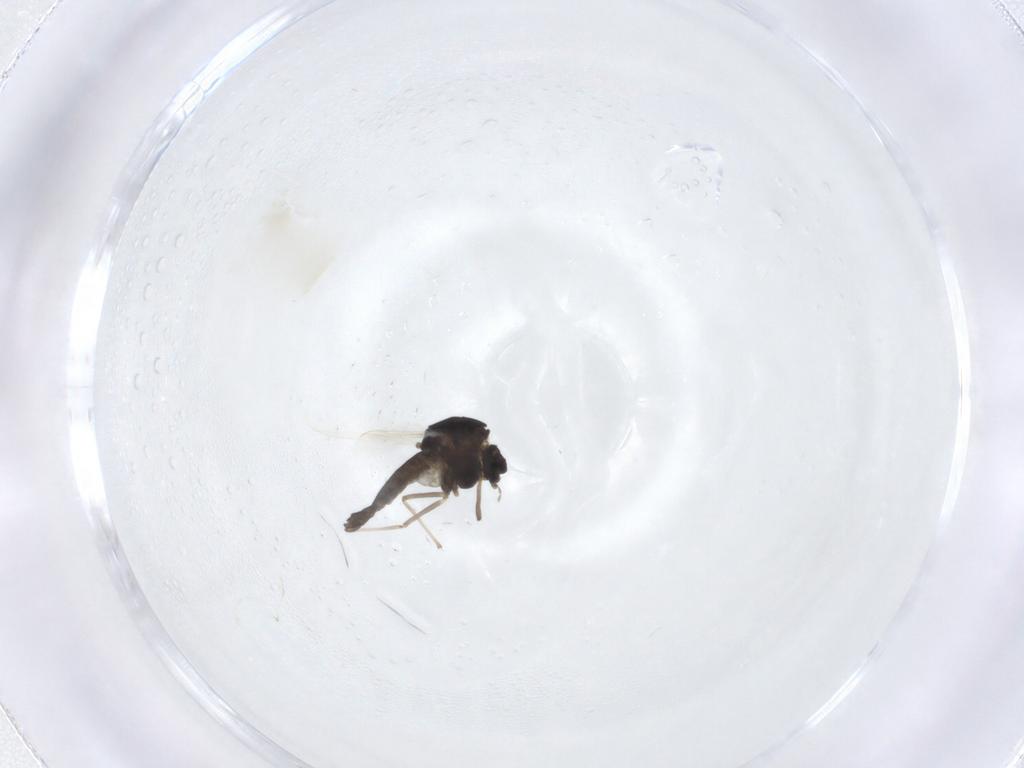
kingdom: Animalia
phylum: Arthropoda
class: Insecta
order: Diptera
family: Chironomidae
